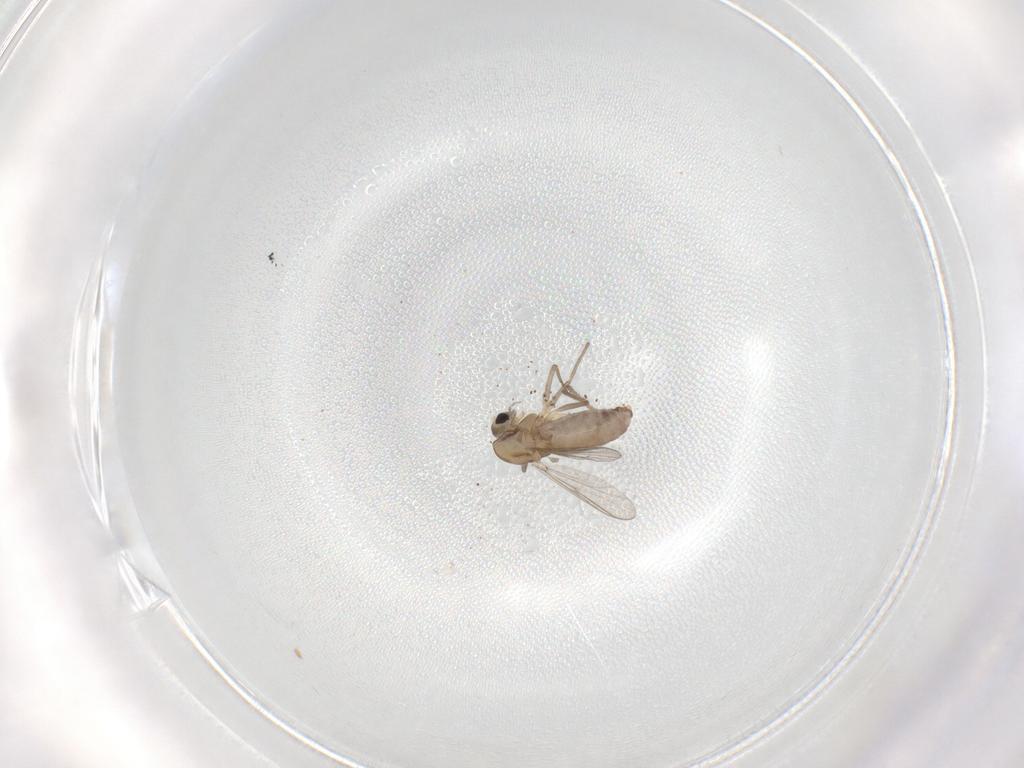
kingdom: Animalia
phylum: Arthropoda
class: Insecta
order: Diptera
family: Chironomidae
